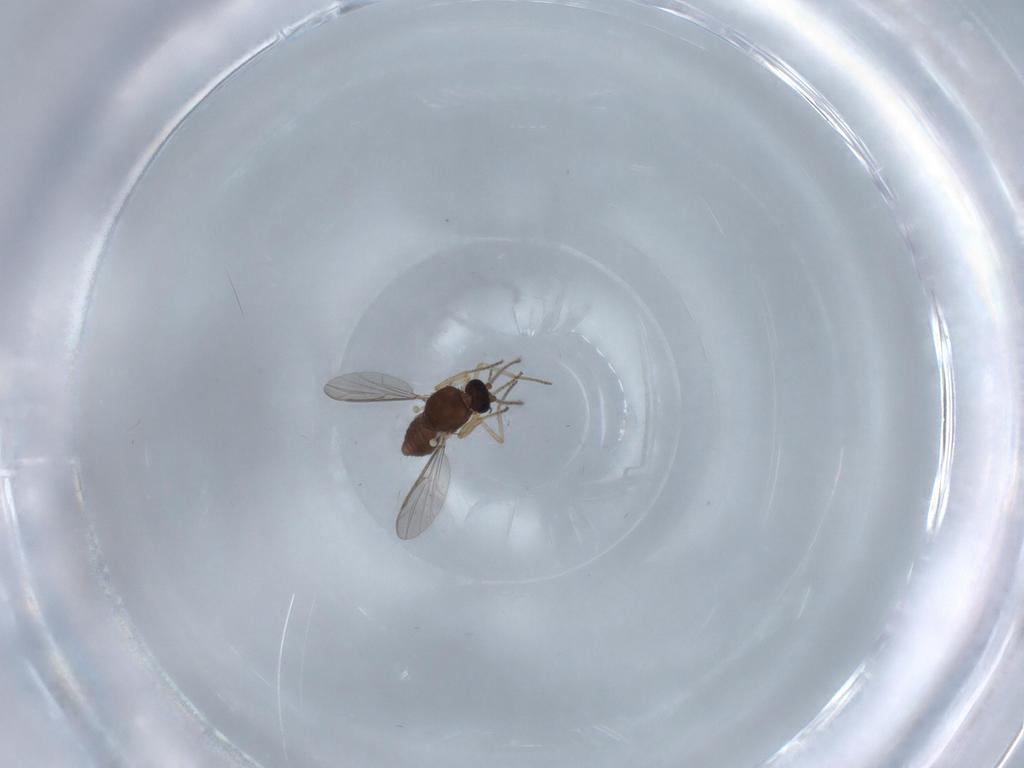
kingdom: Animalia
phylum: Arthropoda
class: Insecta
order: Diptera
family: Ceratopogonidae
